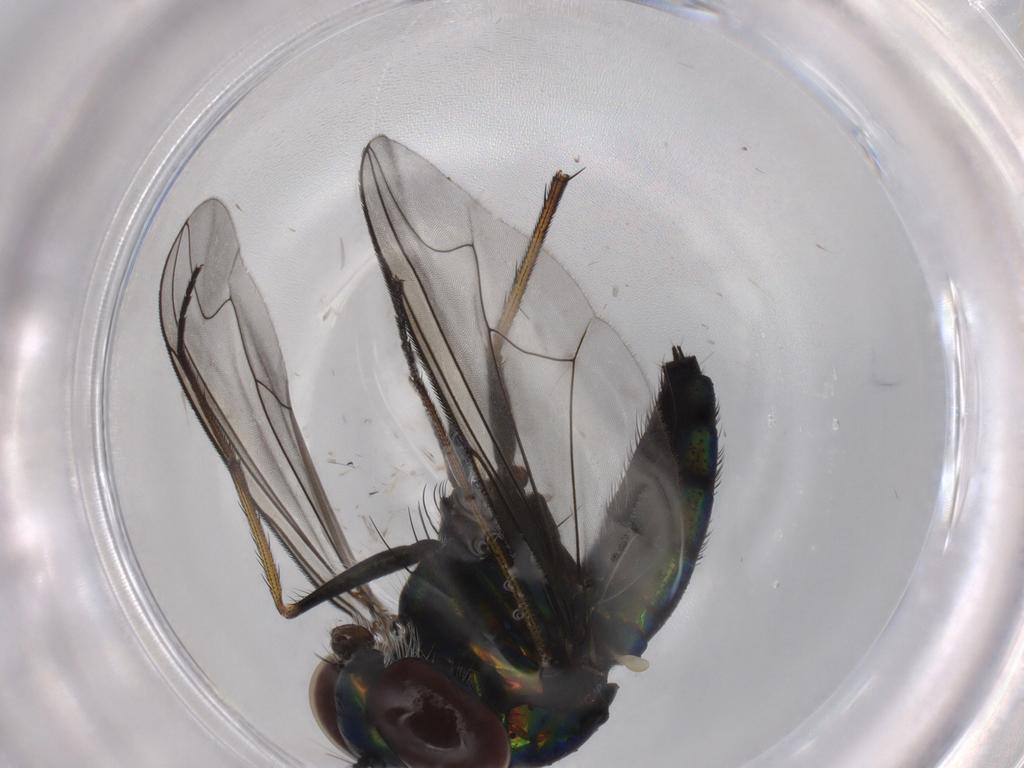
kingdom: Animalia
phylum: Arthropoda
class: Insecta
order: Diptera
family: Dolichopodidae
